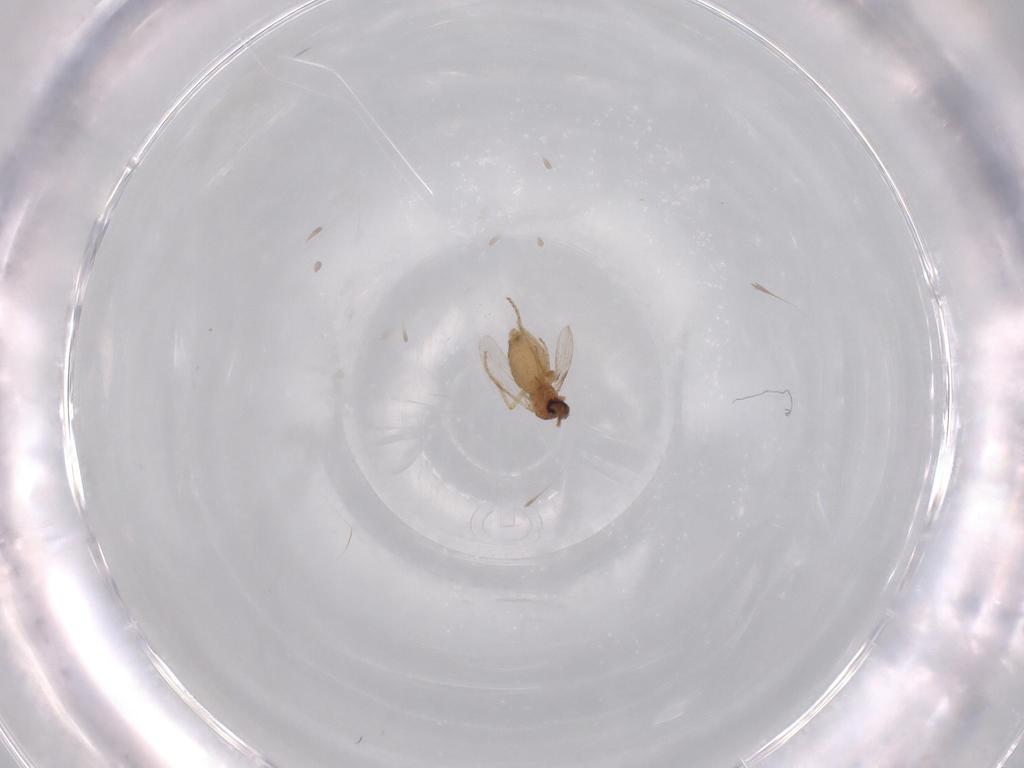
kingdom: Animalia
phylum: Arthropoda
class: Insecta
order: Diptera
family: Ceratopogonidae
